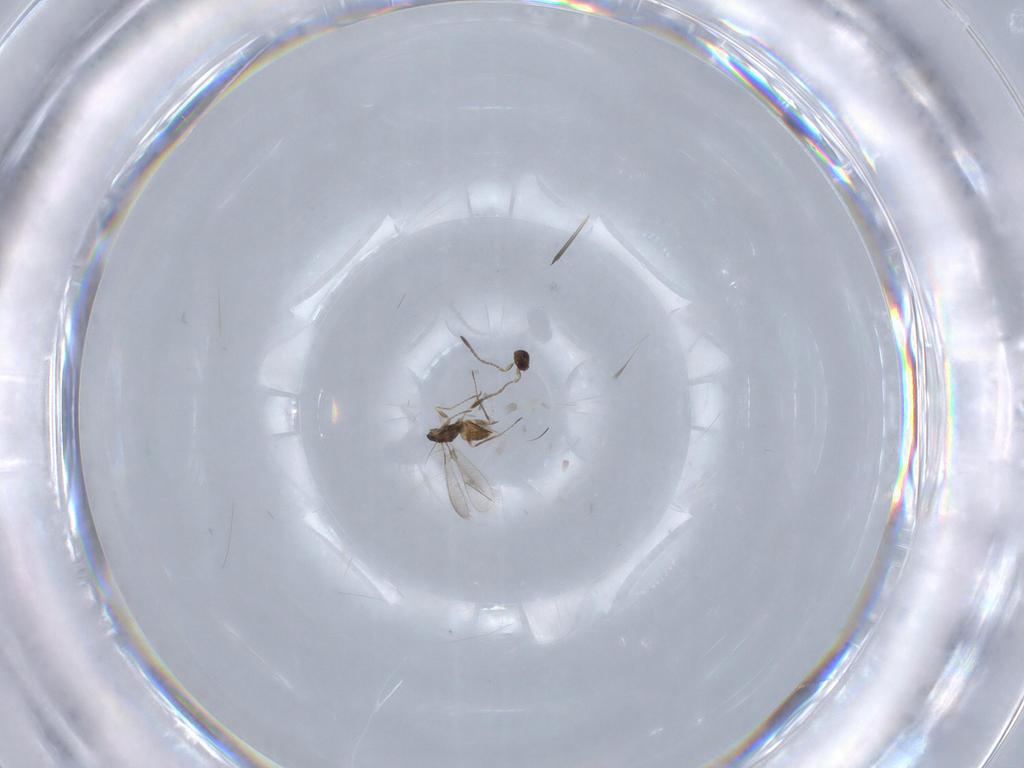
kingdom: Animalia
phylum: Arthropoda
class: Insecta
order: Hymenoptera
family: Mymaridae
